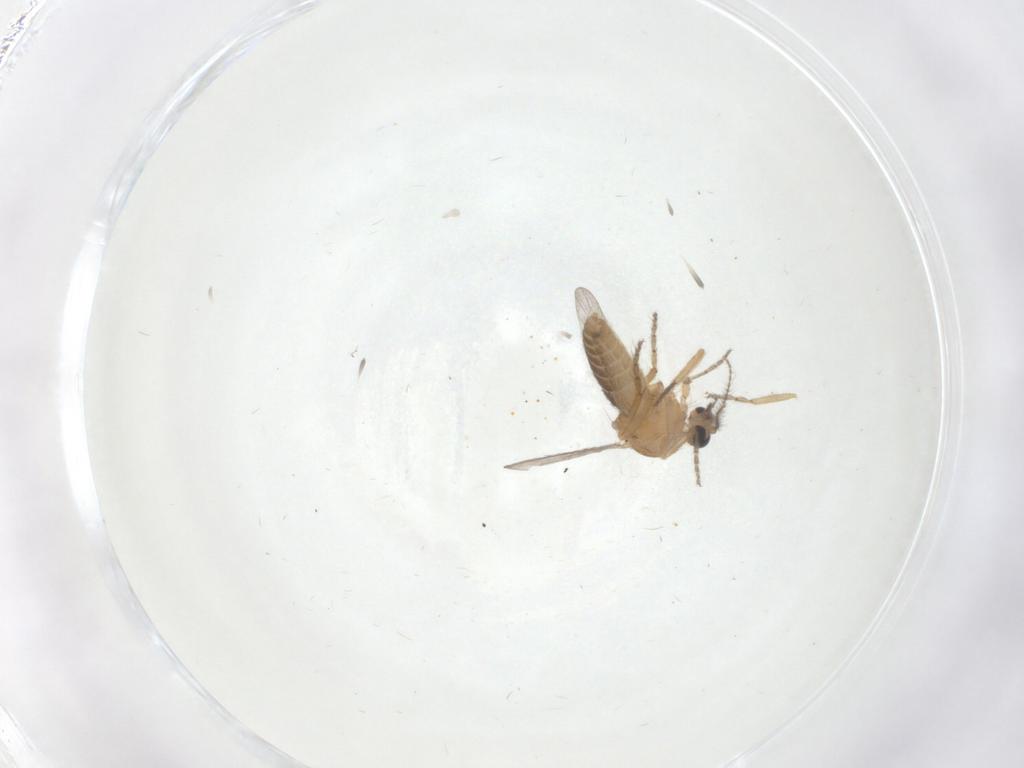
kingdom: Animalia
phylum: Arthropoda
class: Insecta
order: Diptera
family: Ceratopogonidae
